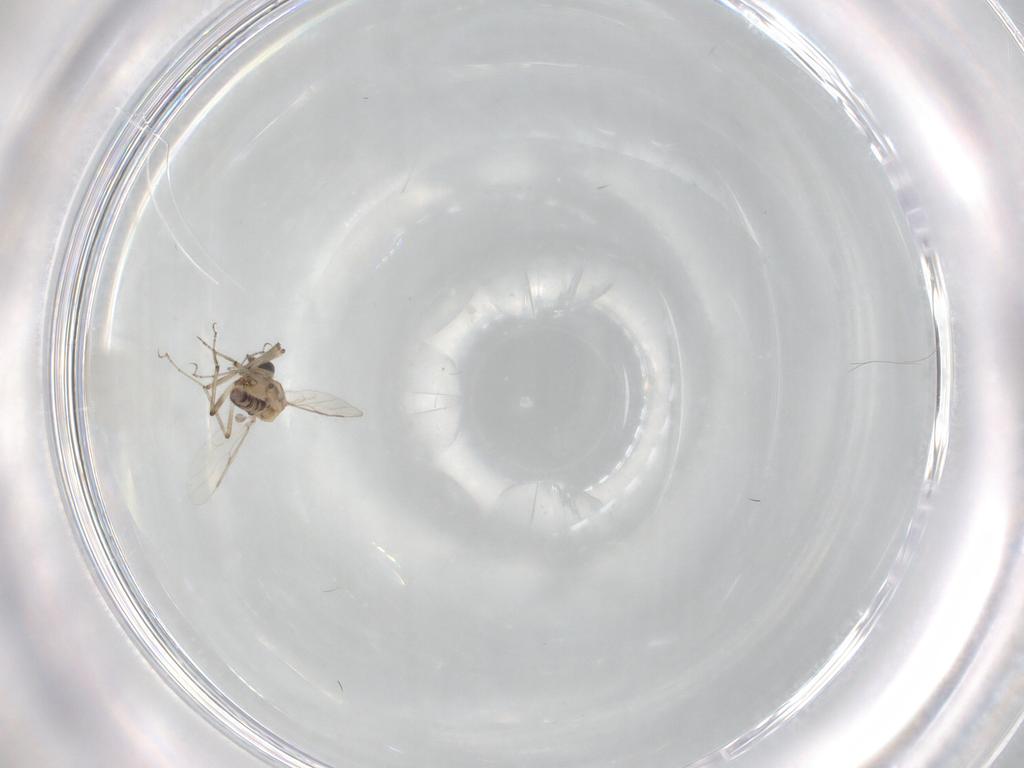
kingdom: Animalia
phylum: Arthropoda
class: Insecta
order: Diptera
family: Ceratopogonidae
